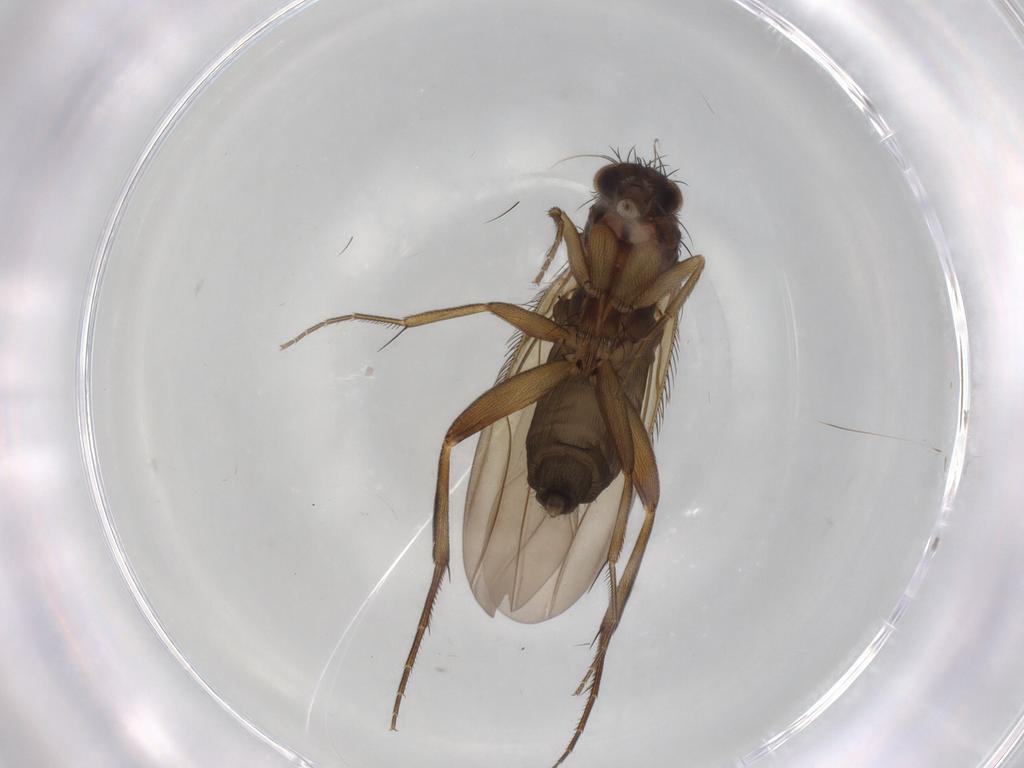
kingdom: Animalia
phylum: Arthropoda
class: Insecta
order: Diptera
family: Phoridae
